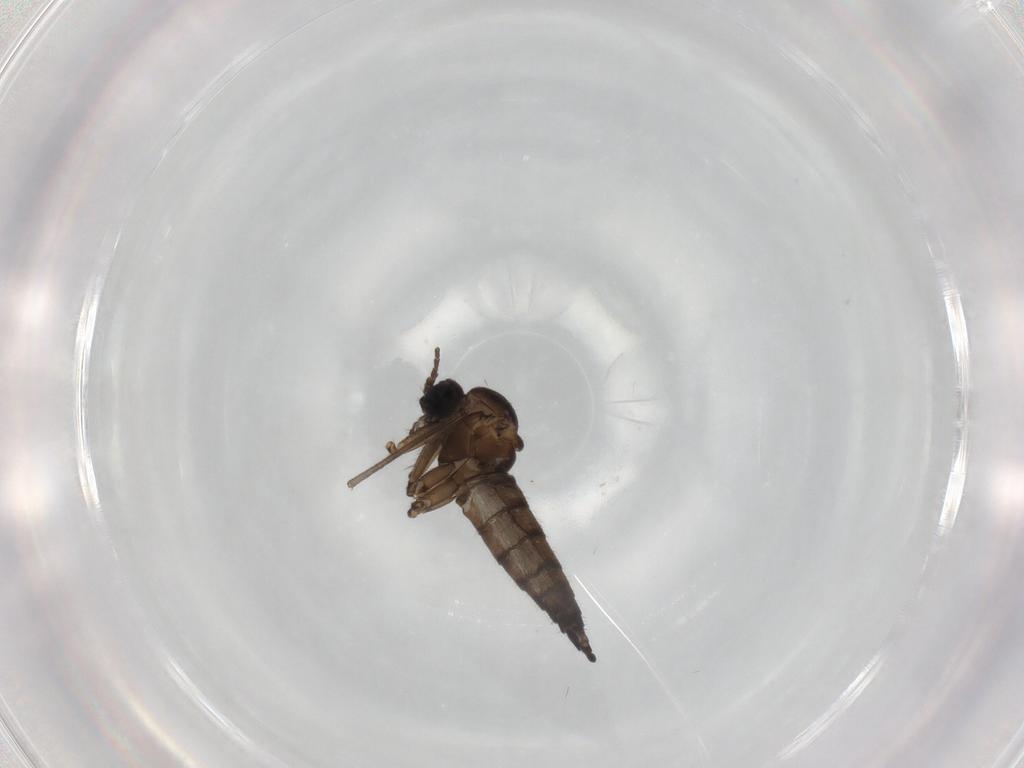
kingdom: Animalia
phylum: Arthropoda
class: Insecta
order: Diptera
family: Sciaridae
